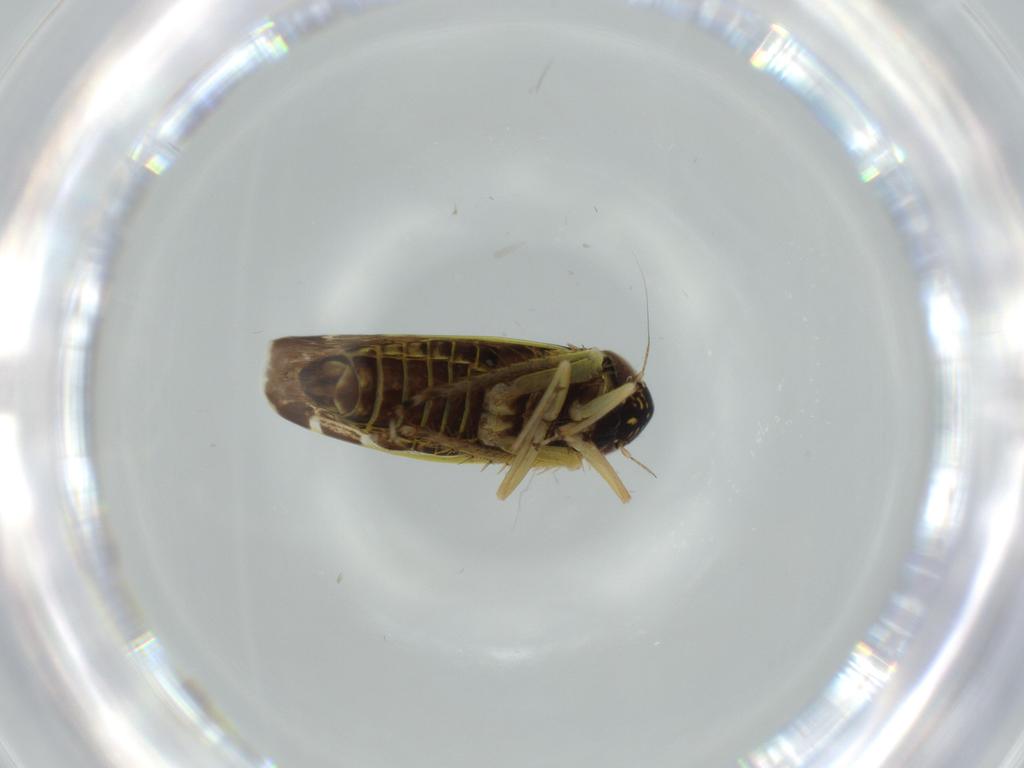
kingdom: Animalia
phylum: Arthropoda
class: Insecta
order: Hemiptera
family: Cicadellidae
